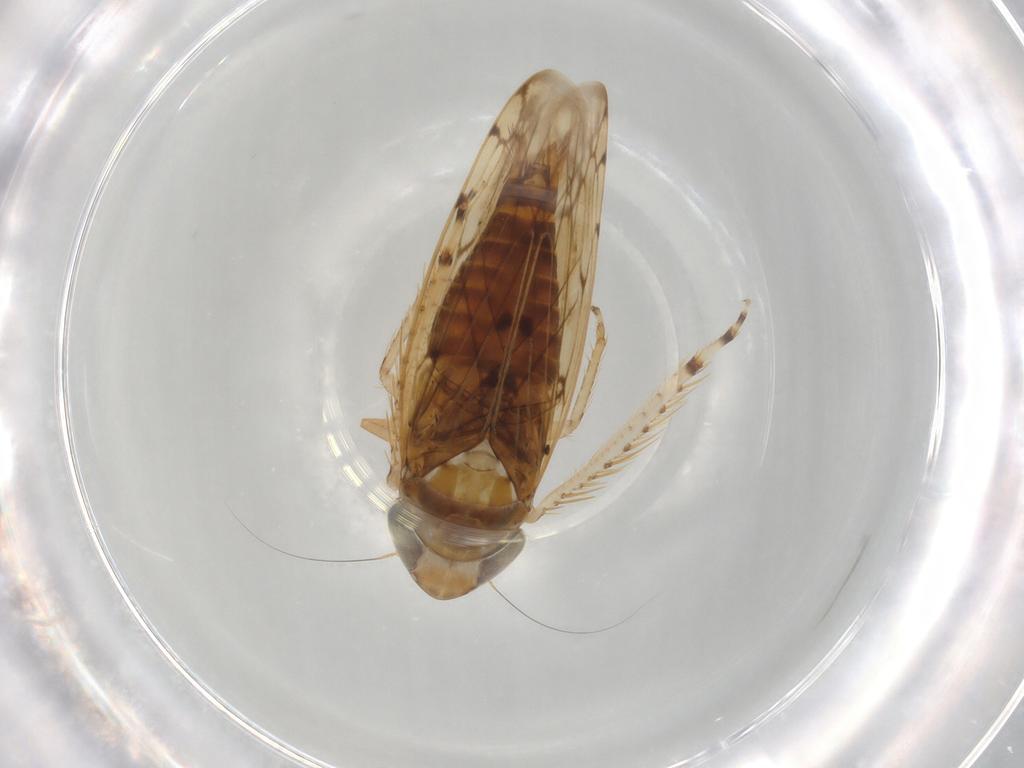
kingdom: Animalia
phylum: Arthropoda
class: Insecta
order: Hemiptera
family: Cicadellidae
